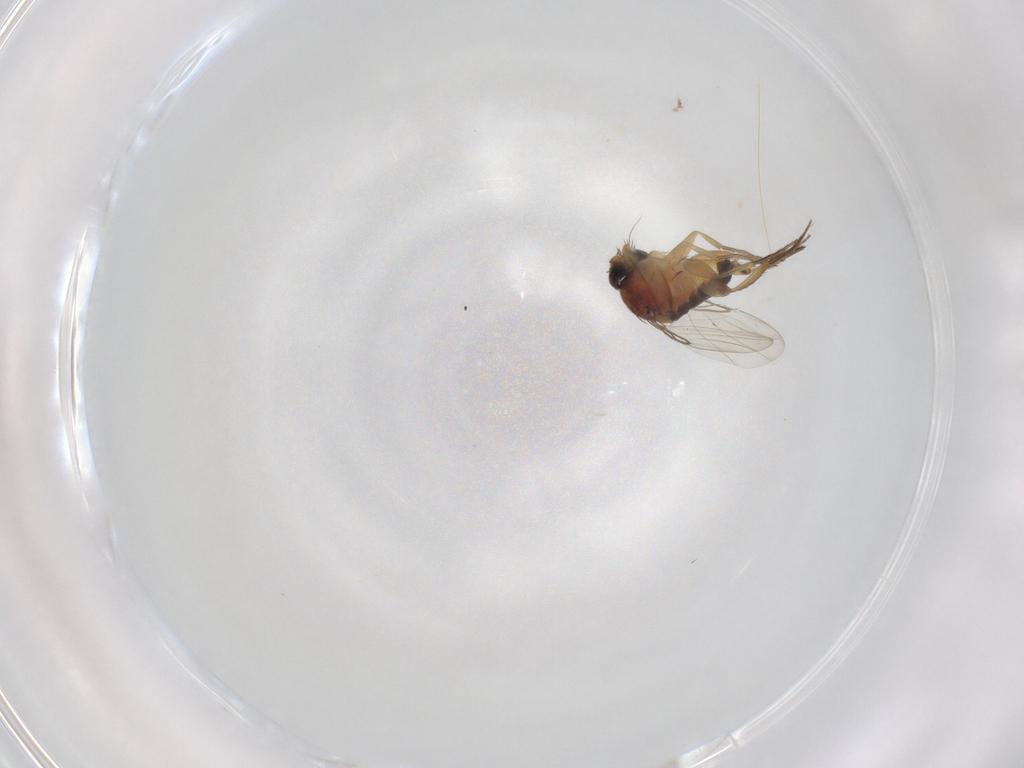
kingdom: Animalia
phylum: Arthropoda
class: Insecta
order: Diptera
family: Phoridae
